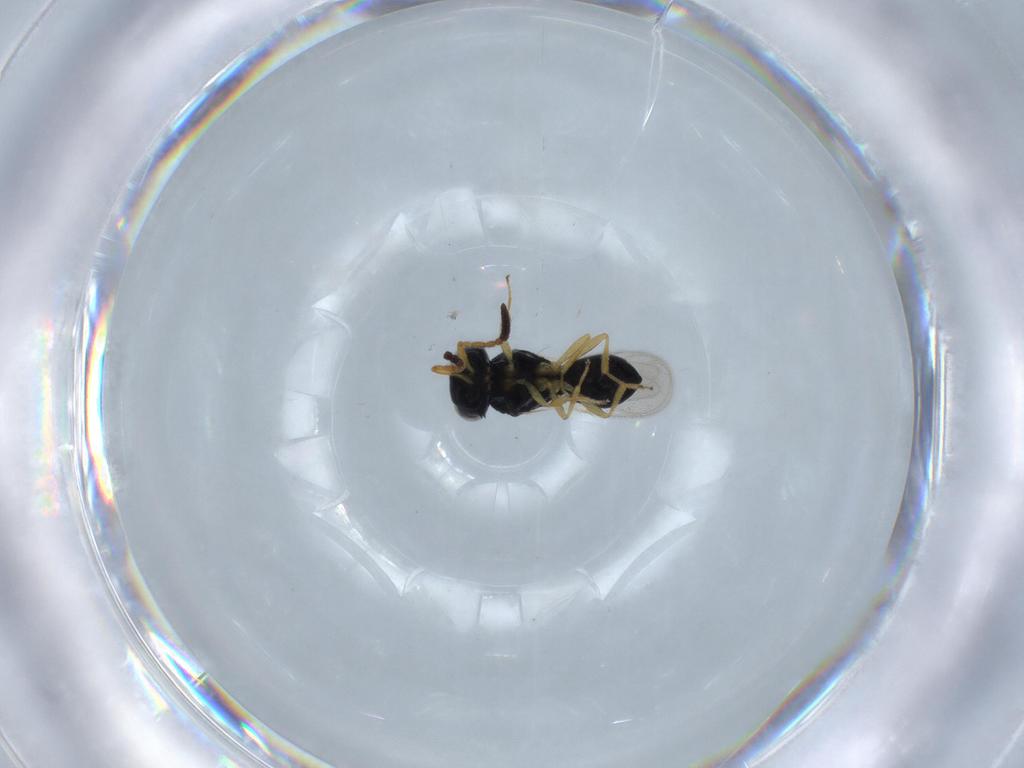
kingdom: Animalia
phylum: Arthropoda
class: Insecta
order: Hymenoptera
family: Scelionidae
